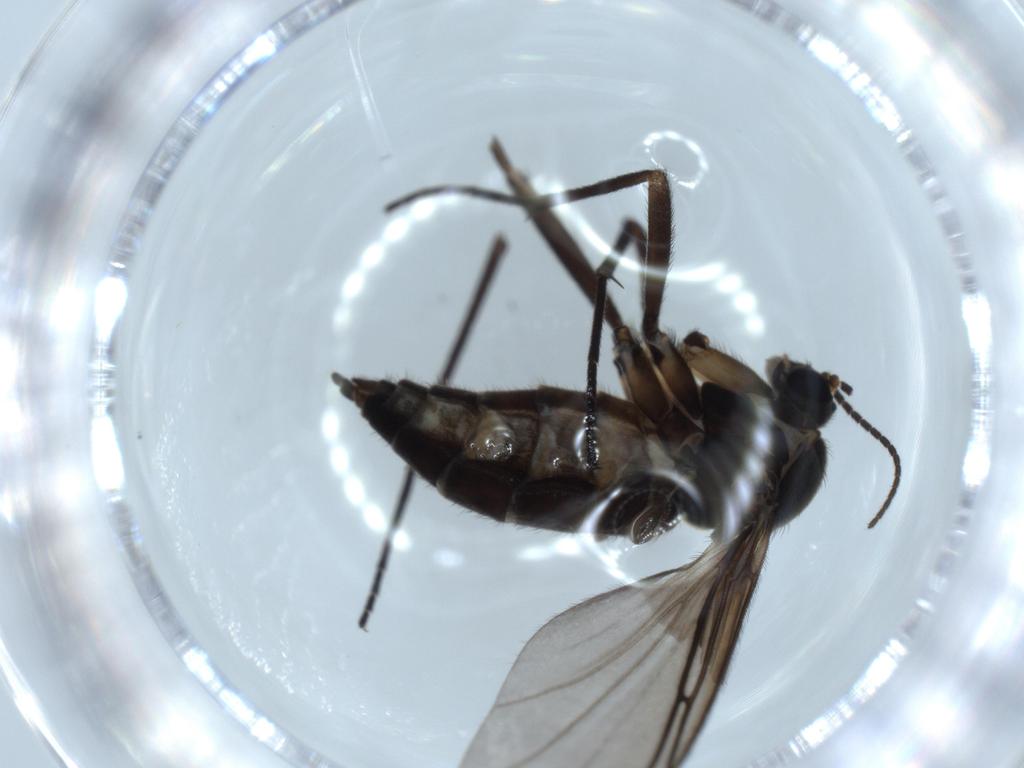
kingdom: Animalia
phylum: Arthropoda
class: Insecta
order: Diptera
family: Sciaridae
